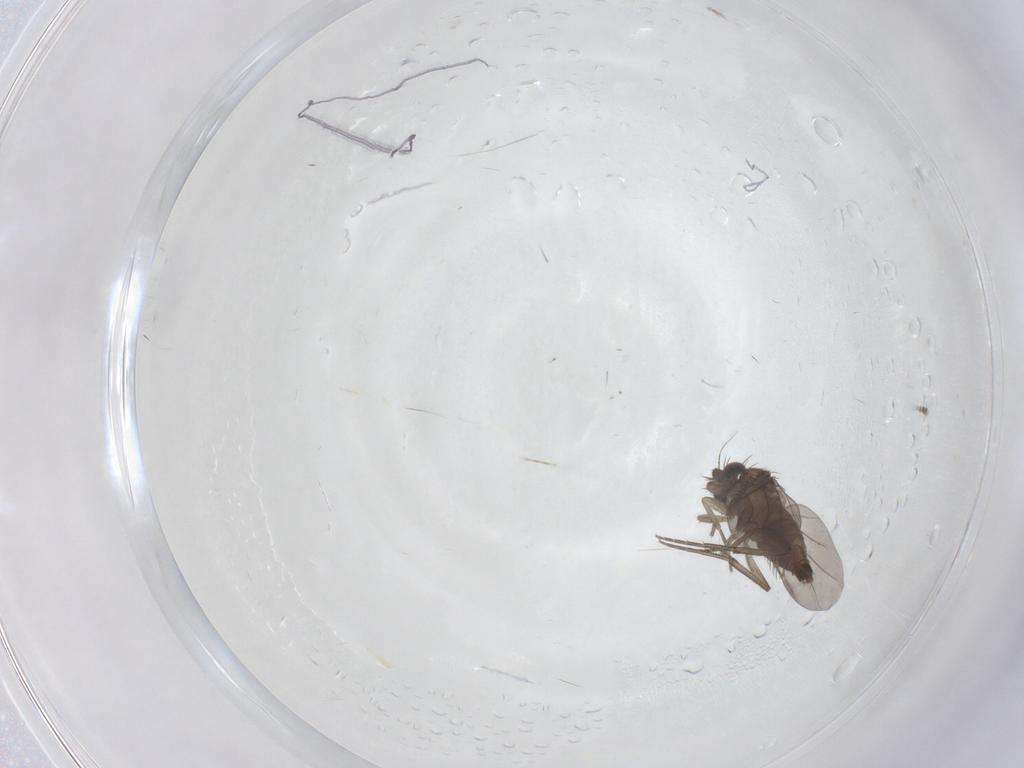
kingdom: Animalia
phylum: Arthropoda
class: Insecta
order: Diptera
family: Phoridae
